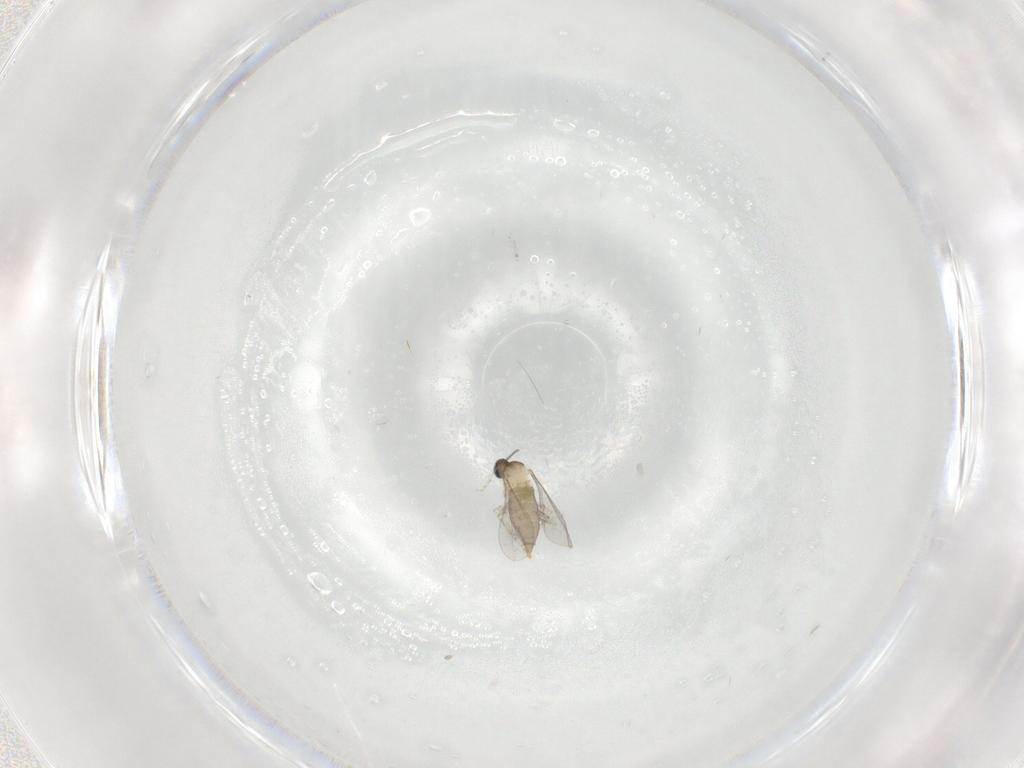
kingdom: Animalia
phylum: Arthropoda
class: Insecta
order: Diptera
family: Cecidomyiidae
